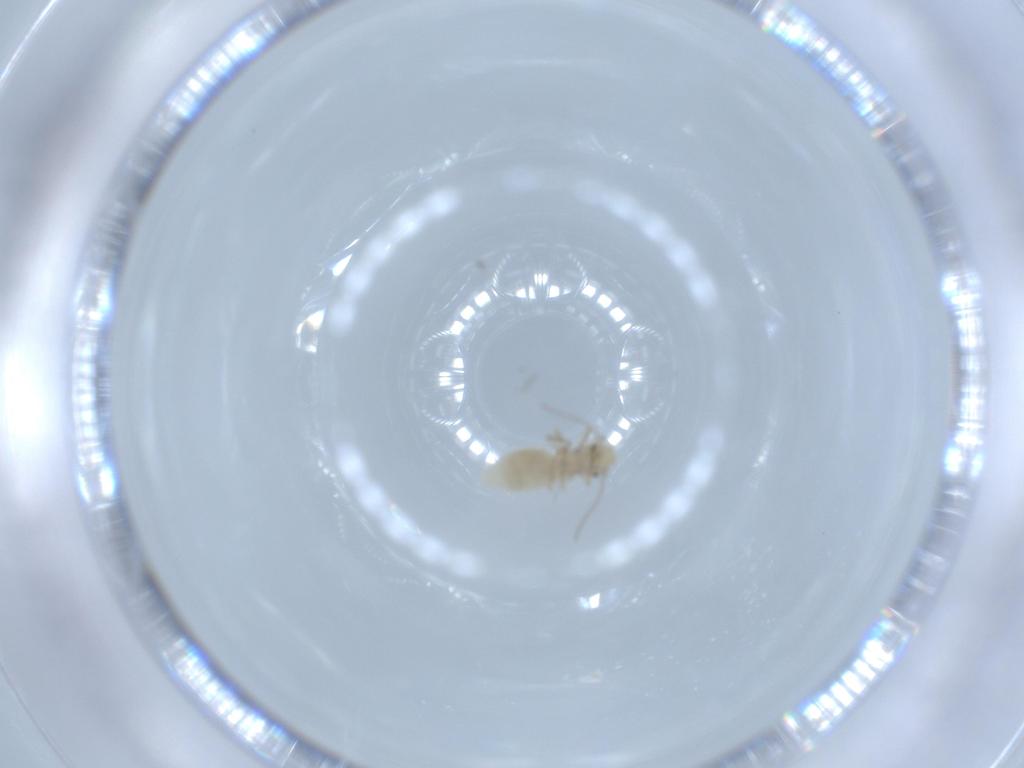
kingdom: Animalia
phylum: Arthropoda
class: Insecta
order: Psocodea
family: Caeciliusidae
